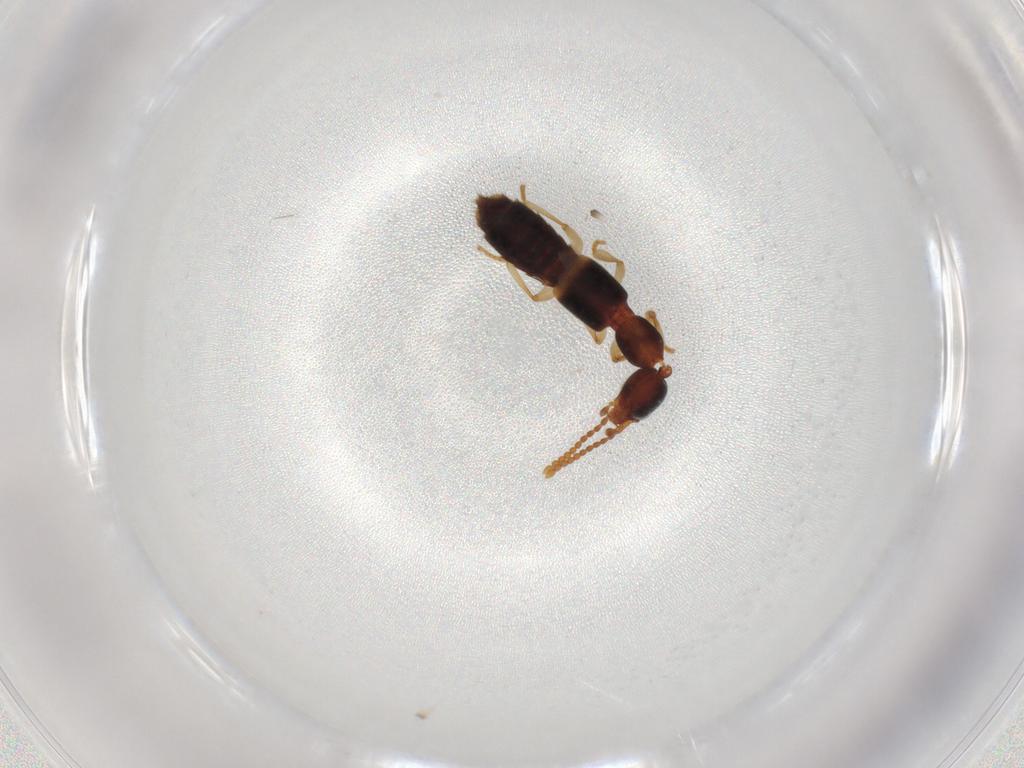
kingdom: Animalia
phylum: Arthropoda
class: Insecta
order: Coleoptera
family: Staphylinidae
